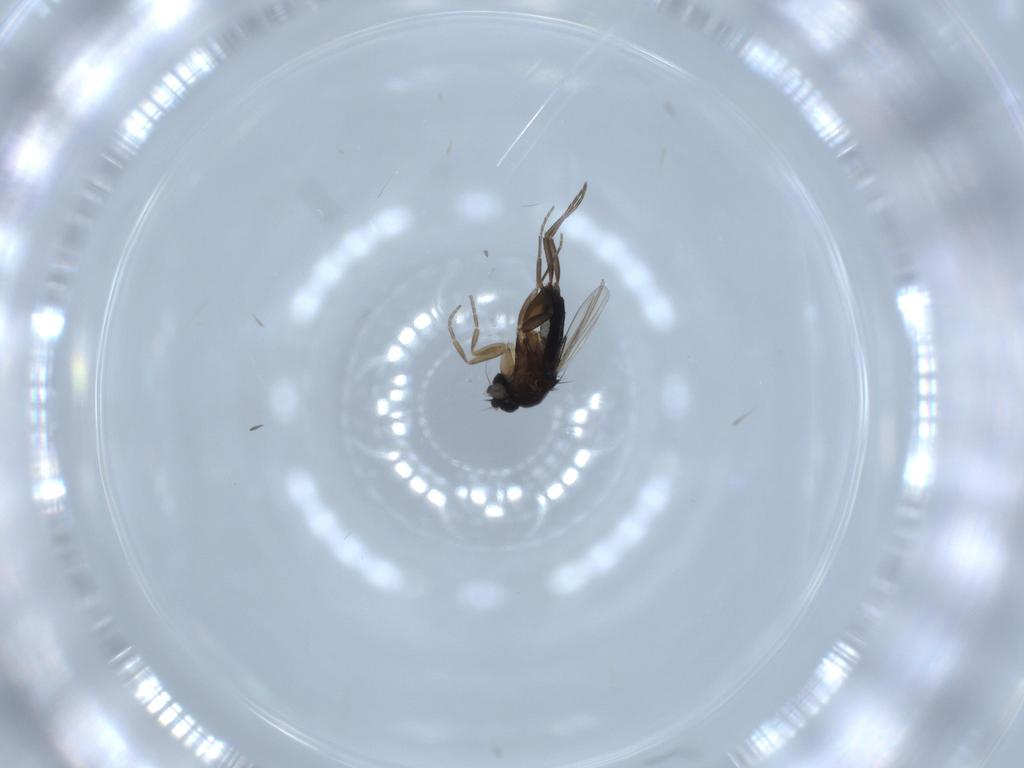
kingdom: Animalia
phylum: Arthropoda
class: Insecta
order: Diptera
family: Phoridae
